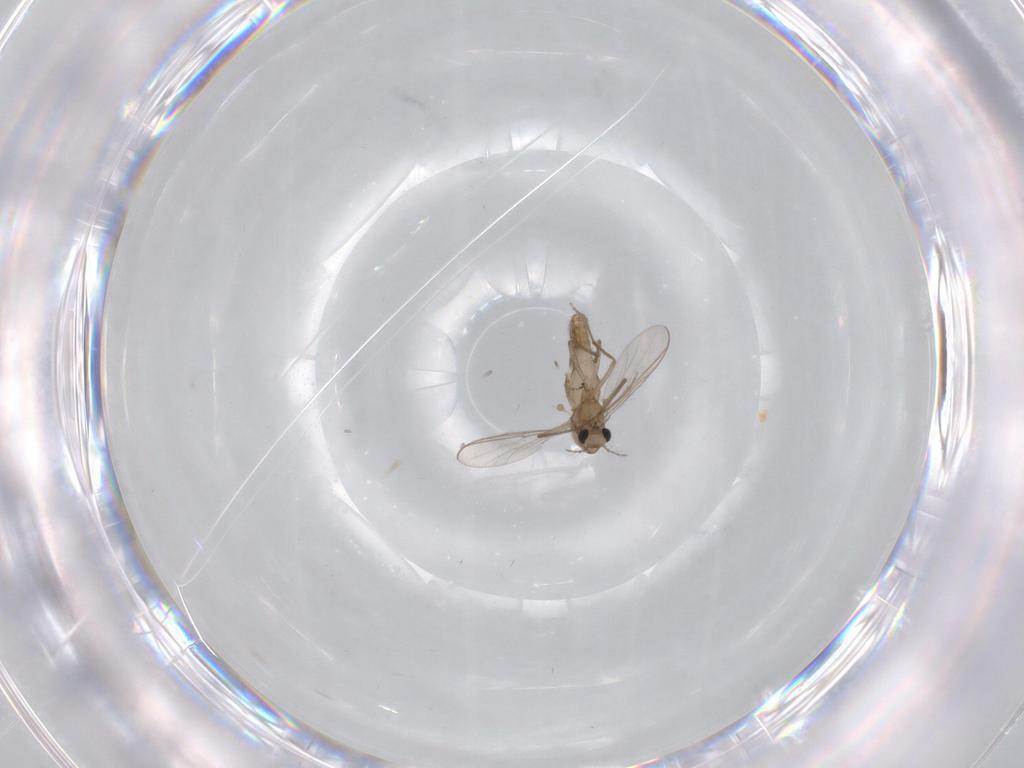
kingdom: Animalia
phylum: Arthropoda
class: Insecta
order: Diptera
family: Chironomidae
